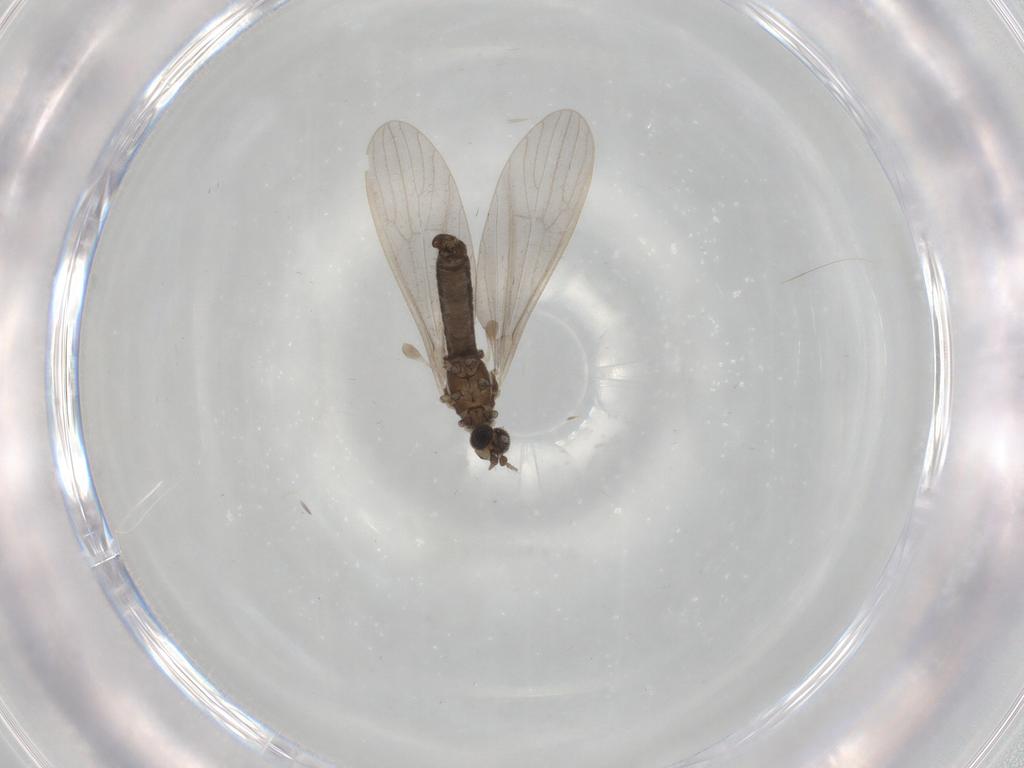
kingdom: Animalia
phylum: Arthropoda
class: Insecta
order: Diptera
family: Limoniidae
